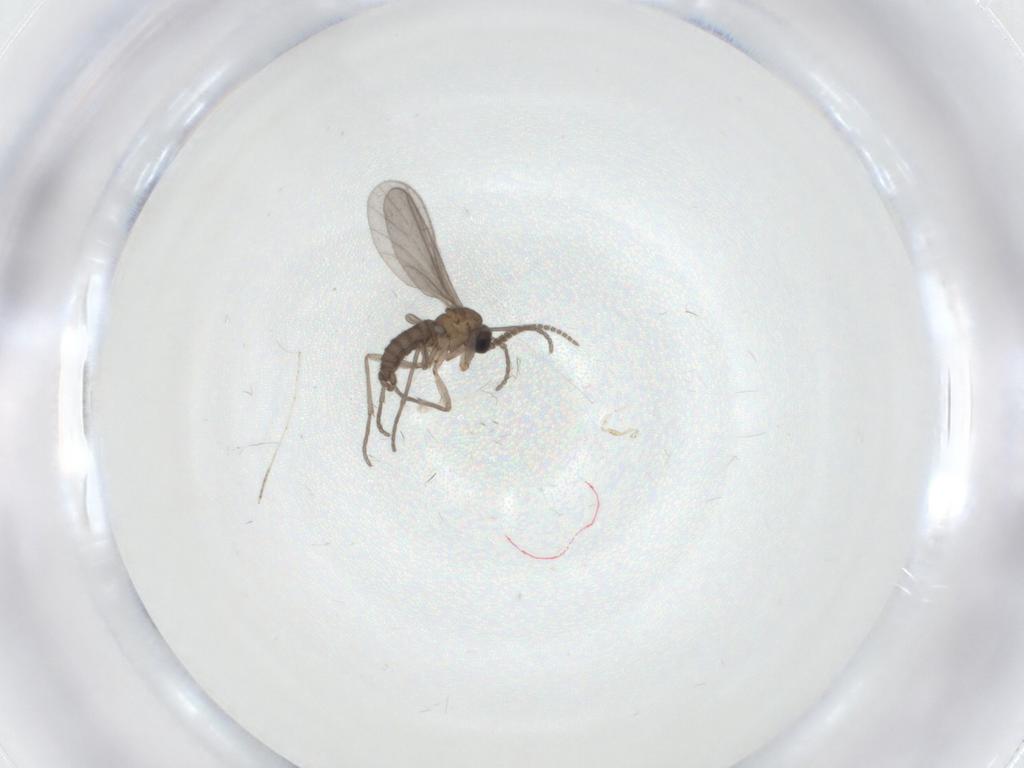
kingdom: Animalia
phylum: Arthropoda
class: Insecta
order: Diptera
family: Sciaridae
